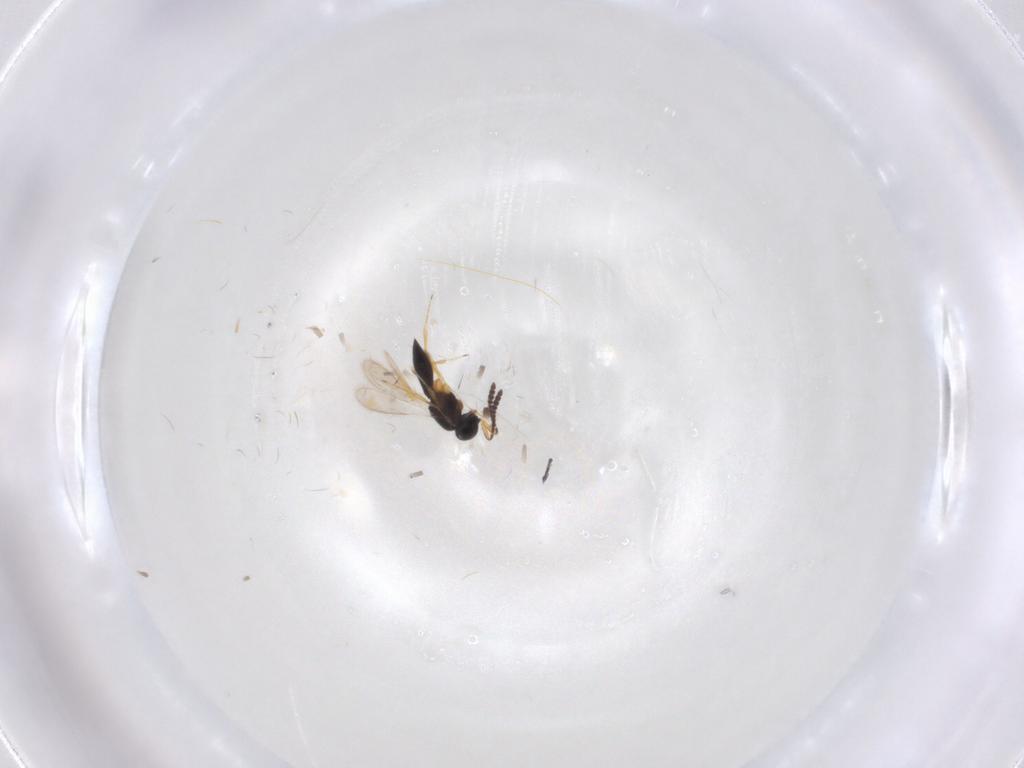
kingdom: Animalia
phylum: Arthropoda
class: Insecta
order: Hymenoptera
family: Scelionidae
